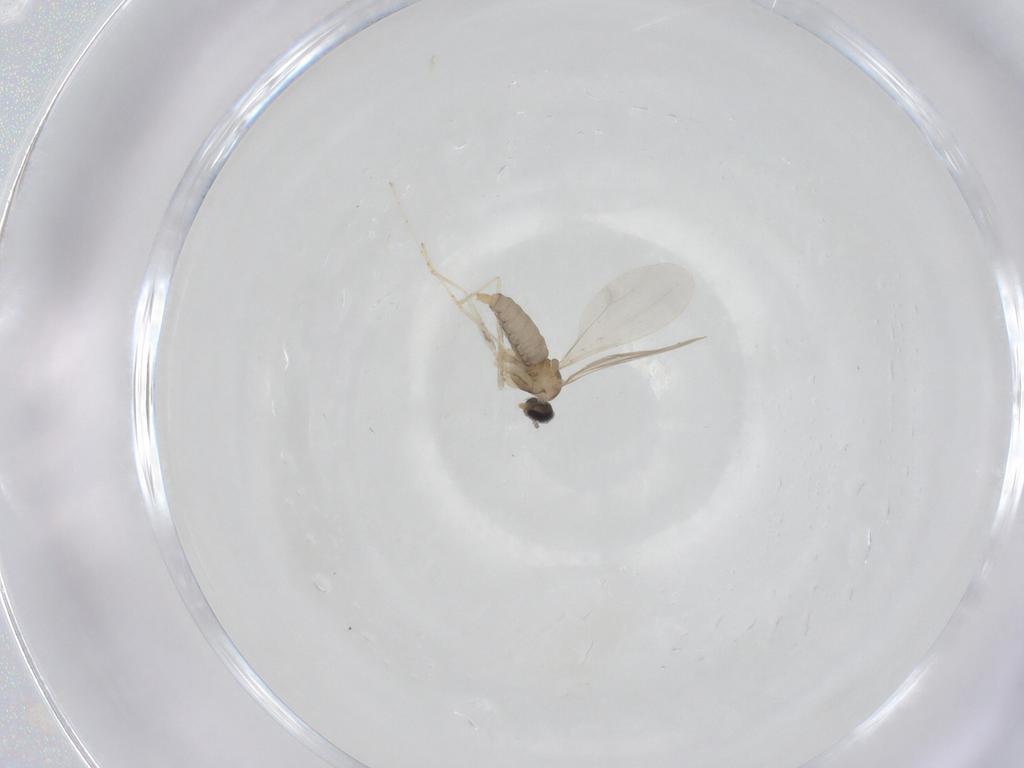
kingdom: Animalia
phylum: Arthropoda
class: Insecta
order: Diptera
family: Cecidomyiidae
